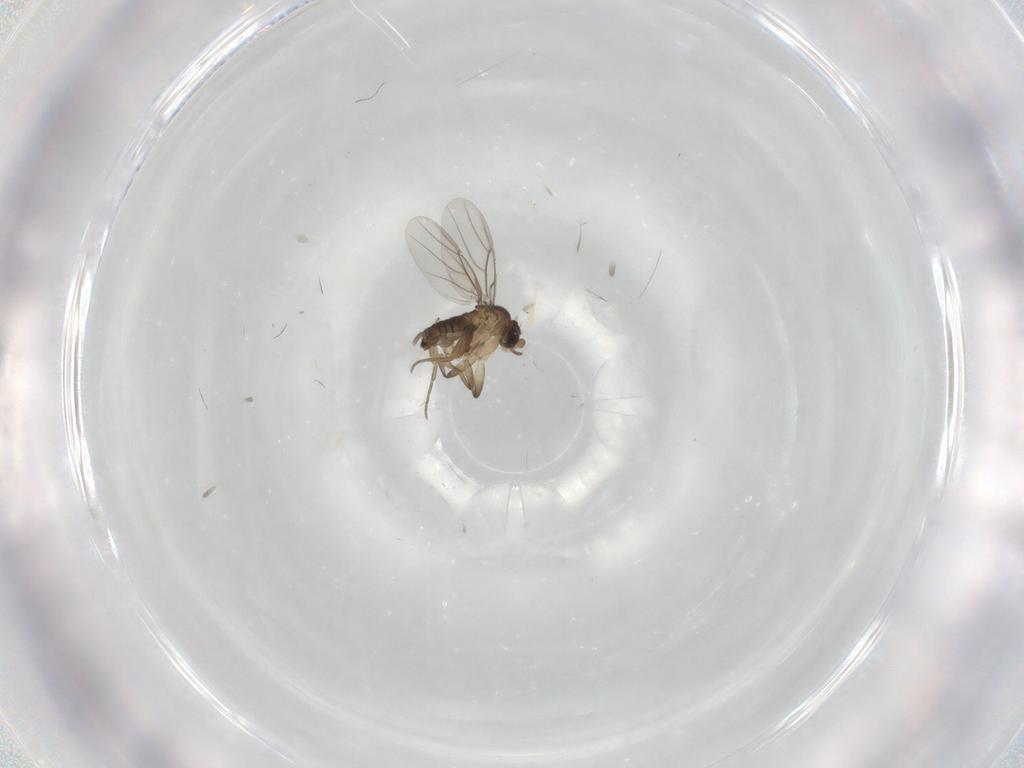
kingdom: Animalia
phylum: Arthropoda
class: Insecta
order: Diptera
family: Phoridae
